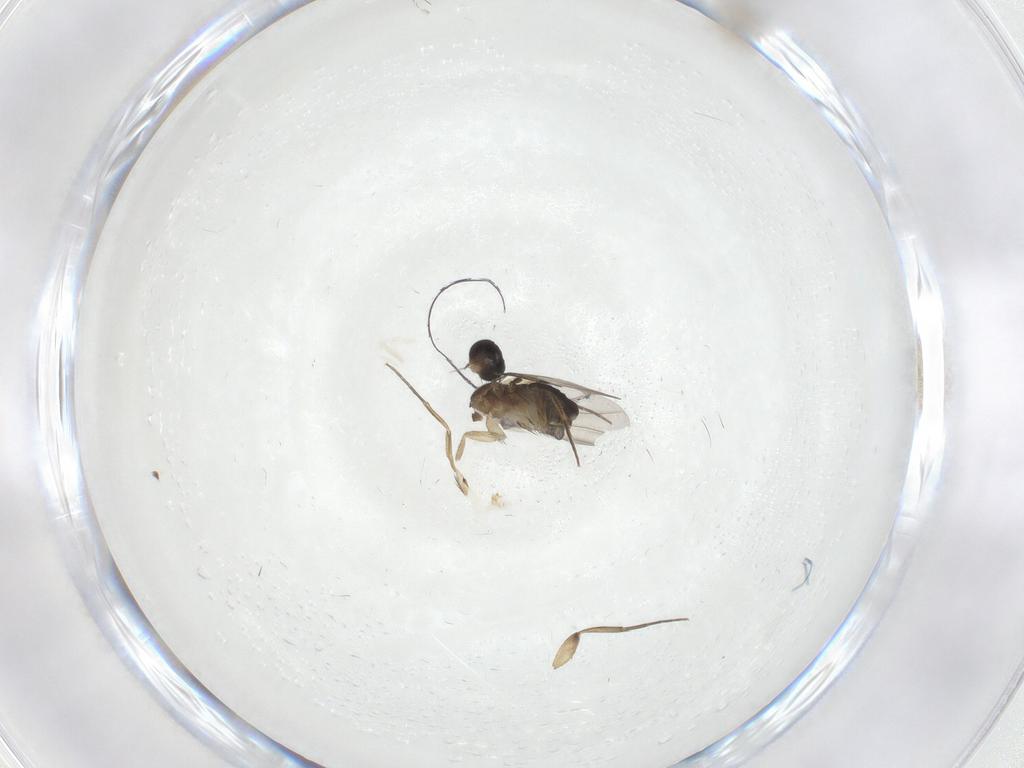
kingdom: Animalia
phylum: Arthropoda
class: Insecta
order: Diptera
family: Phoridae
